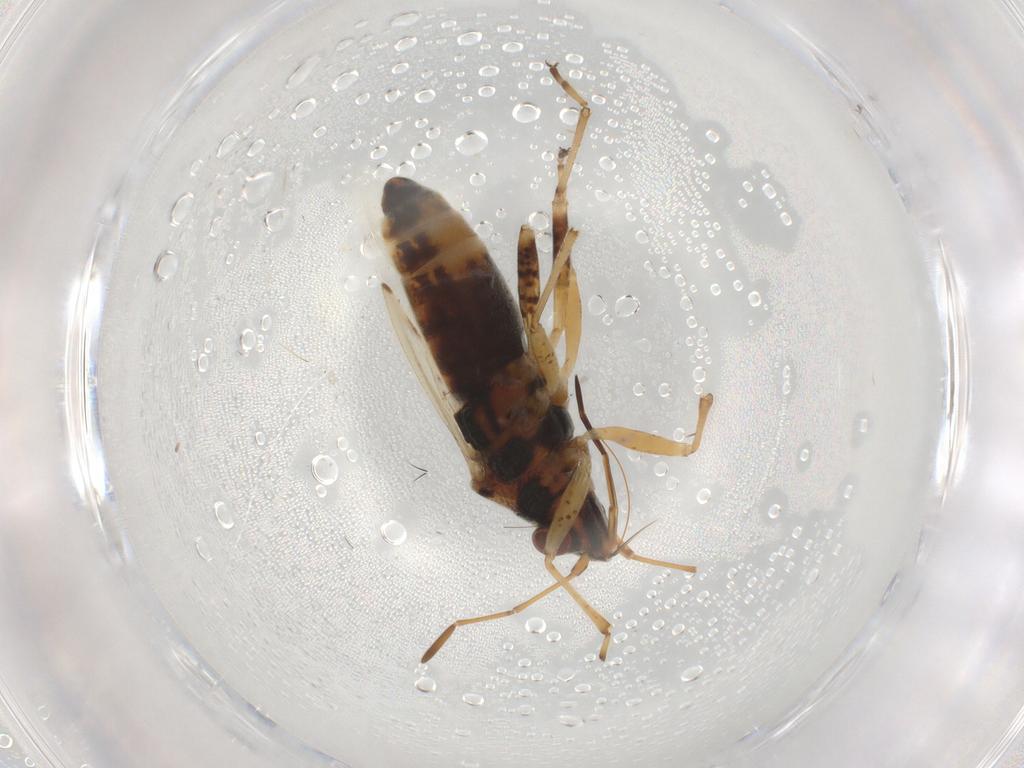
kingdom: Animalia
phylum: Arthropoda
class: Insecta
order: Hemiptera
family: Lygaeidae
